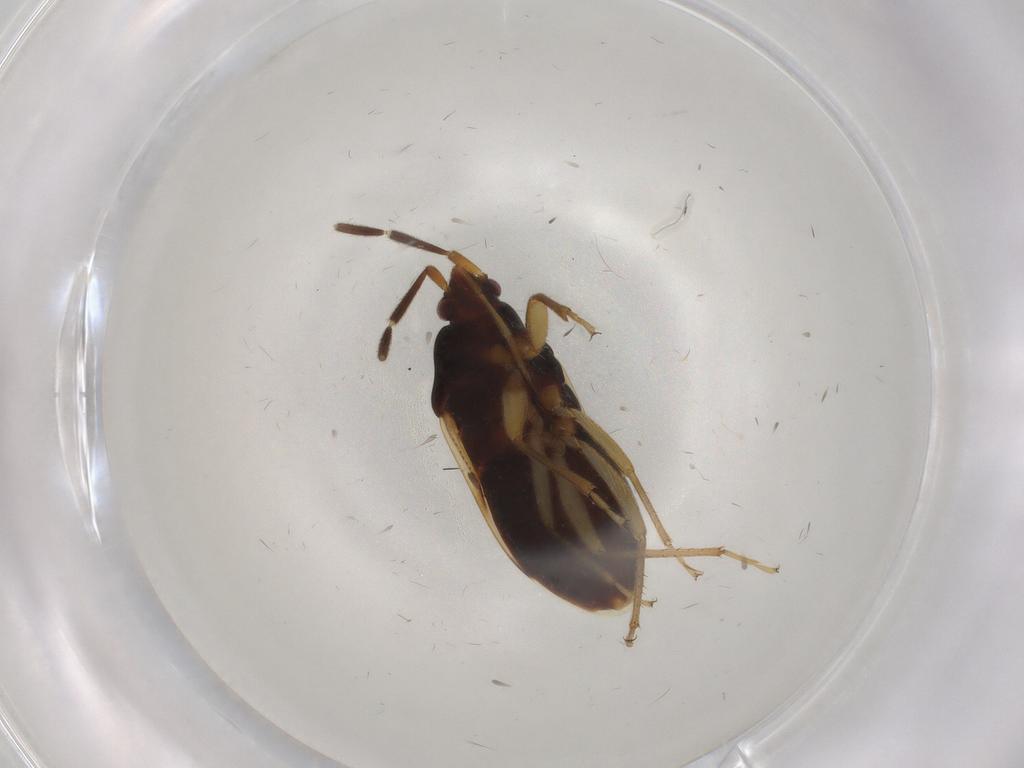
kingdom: Animalia
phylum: Arthropoda
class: Insecta
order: Hemiptera
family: Rhyparochromidae
